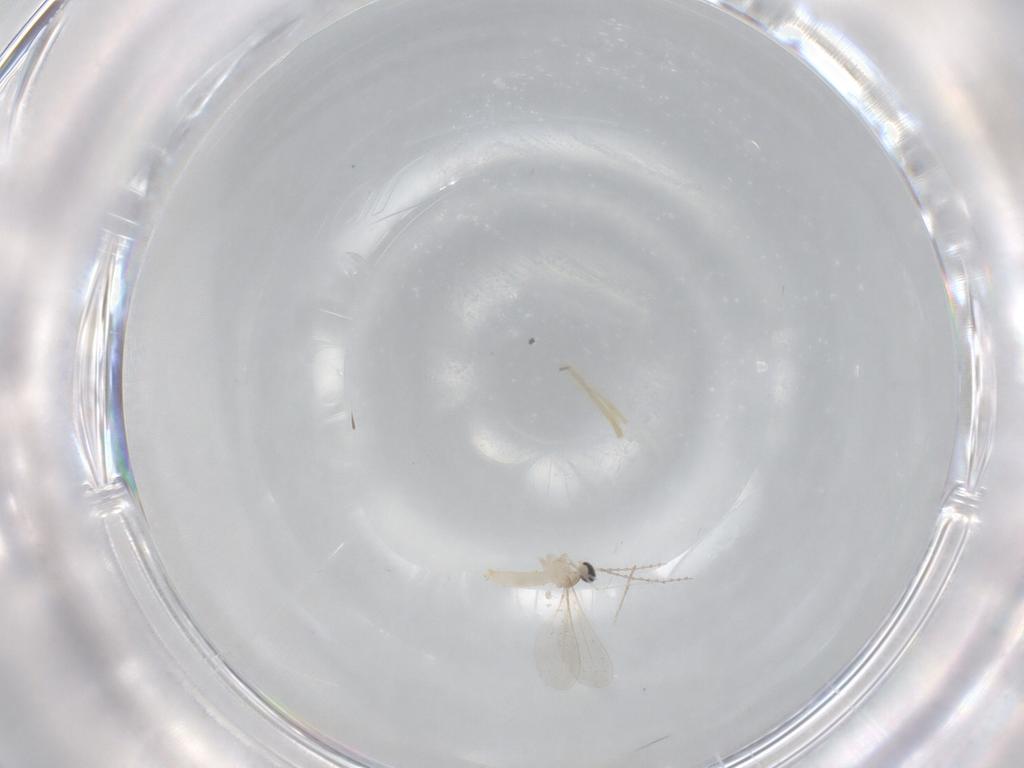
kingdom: Animalia
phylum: Arthropoda
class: Insecta
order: Diptera
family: Cecidomyiidae
